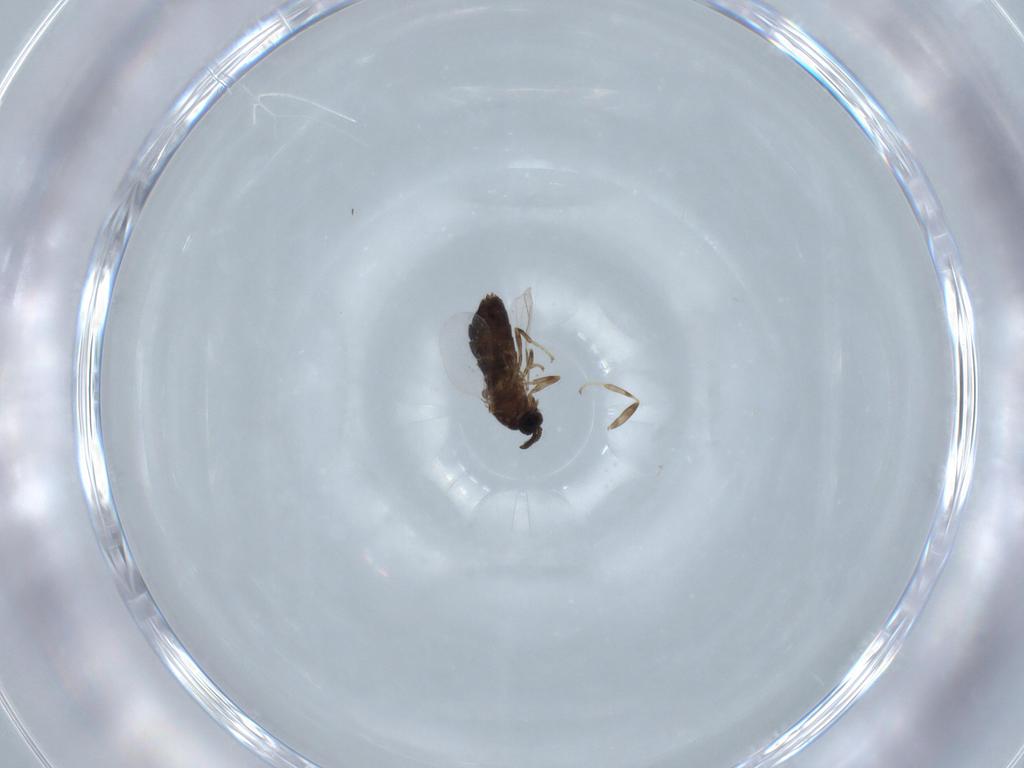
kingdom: Animalia
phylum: Arthropoda
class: Insecta
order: Diptera
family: Scatopsidae
